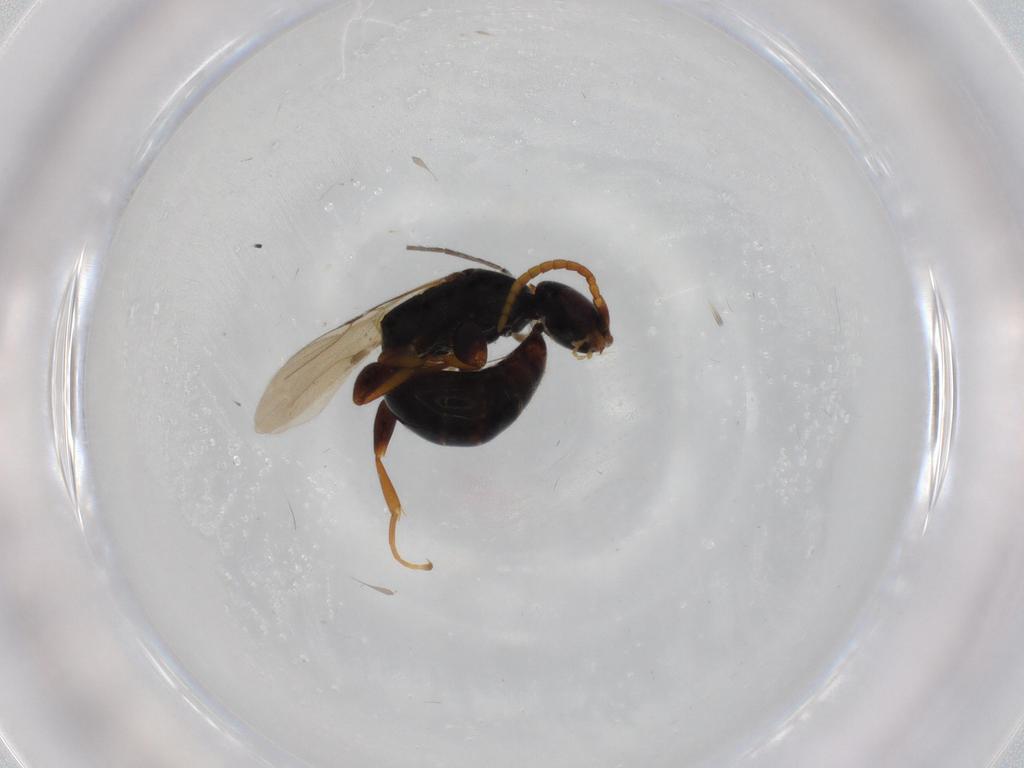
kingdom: Animalia
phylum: Arthropoda
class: Insecta
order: Hymenoptera
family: Bethylidae
